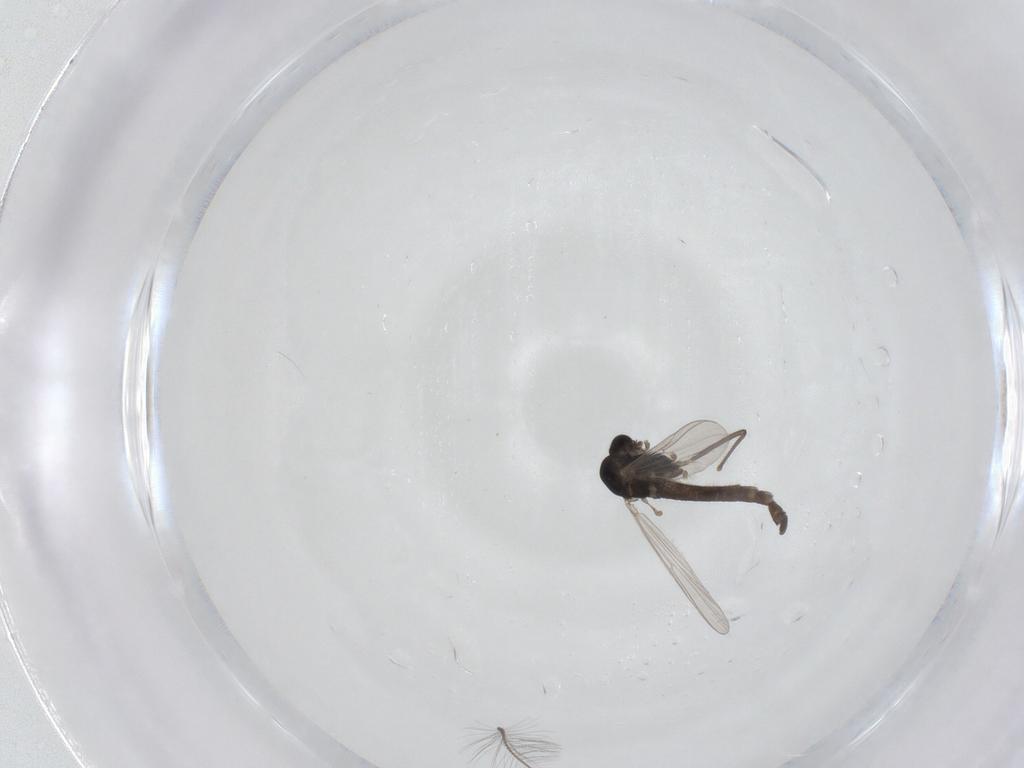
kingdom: Animalia
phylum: Arthropoda
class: Insecta
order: Diptera
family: Chironomidae
